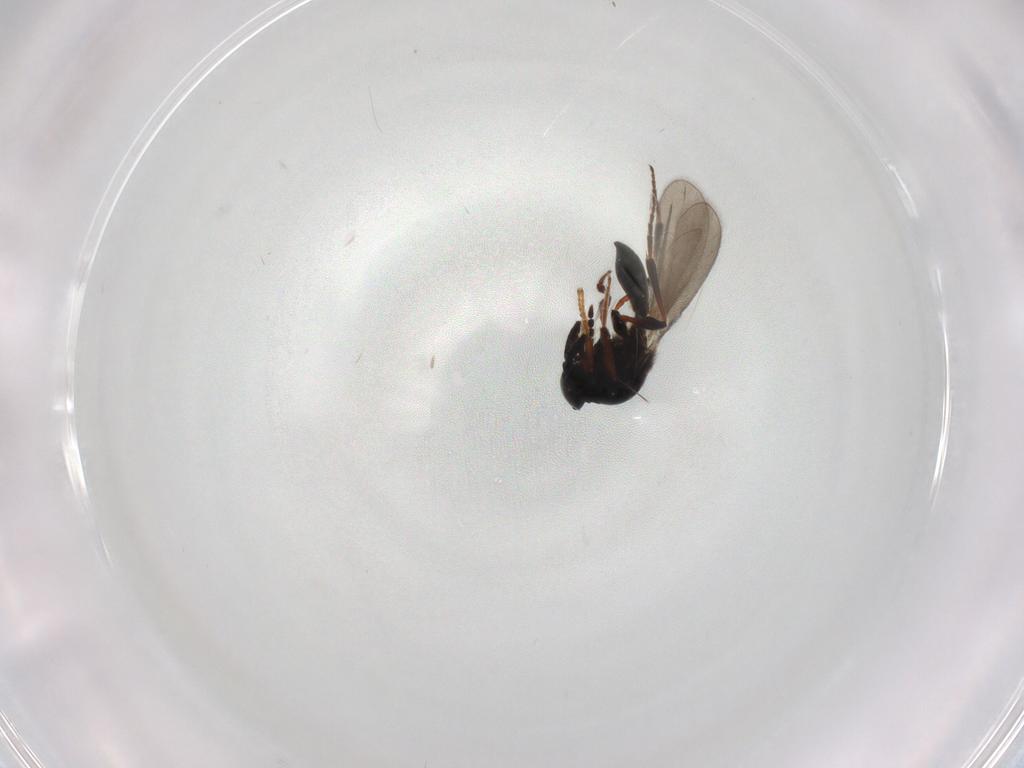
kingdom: Animalia
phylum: Arthropoda
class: Insecta
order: Hymenoptera
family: Platygastridae
